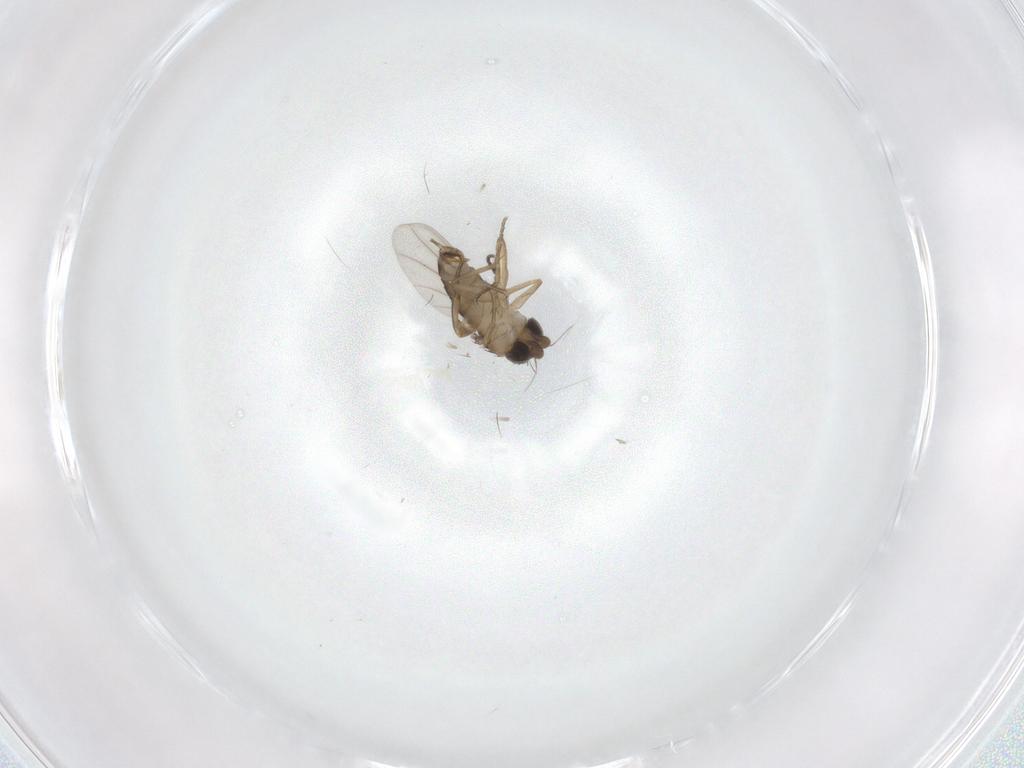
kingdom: Animalia
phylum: Arthropoda
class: Insecta
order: Diptera
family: Phoridae
